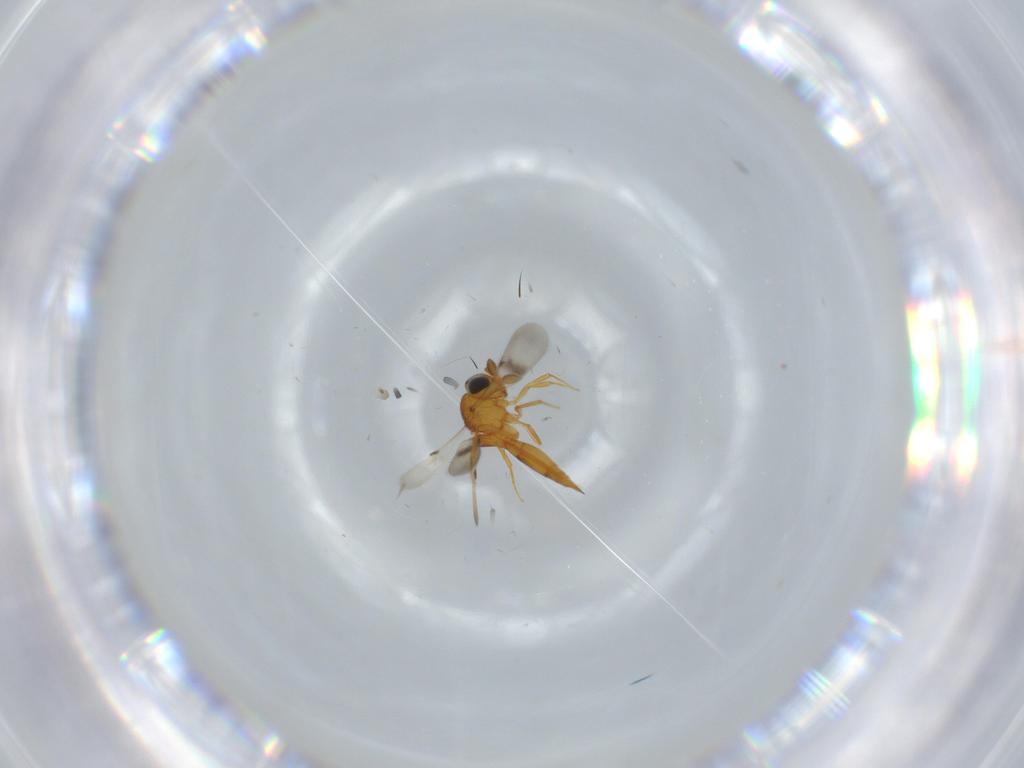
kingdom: Animalia
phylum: Arthropoda
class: Insecta
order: Hymenoptera
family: Scelionidae
